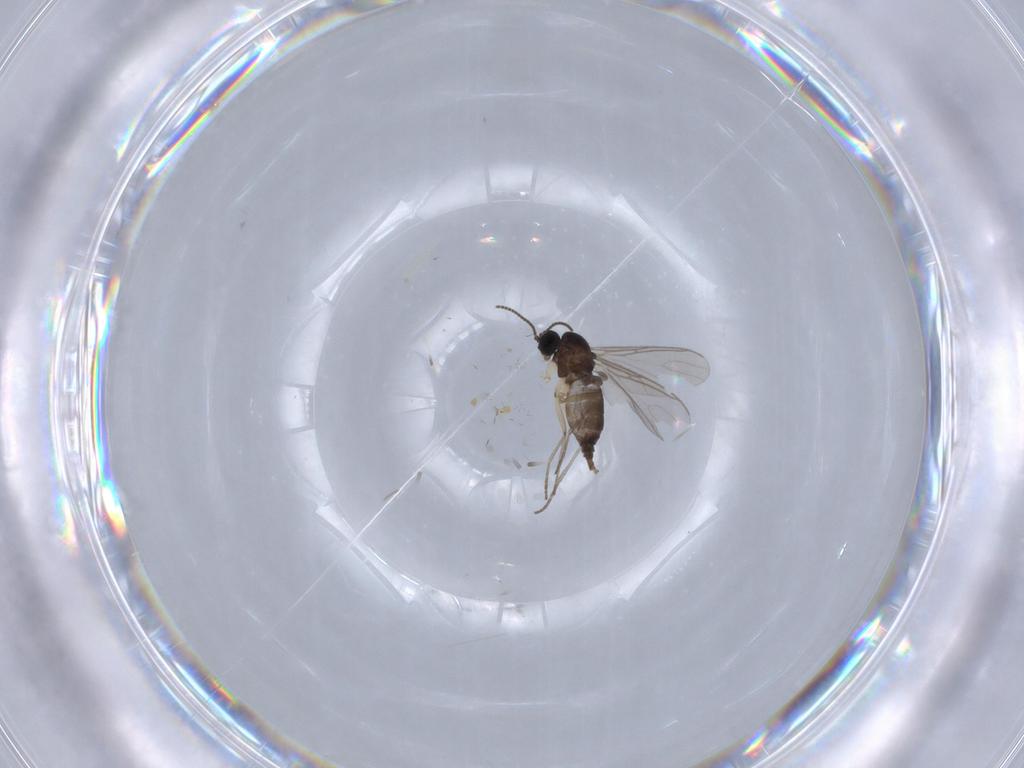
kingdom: Animalia
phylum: Arthropoda
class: Insecta
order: Diptera
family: Sciaridae
